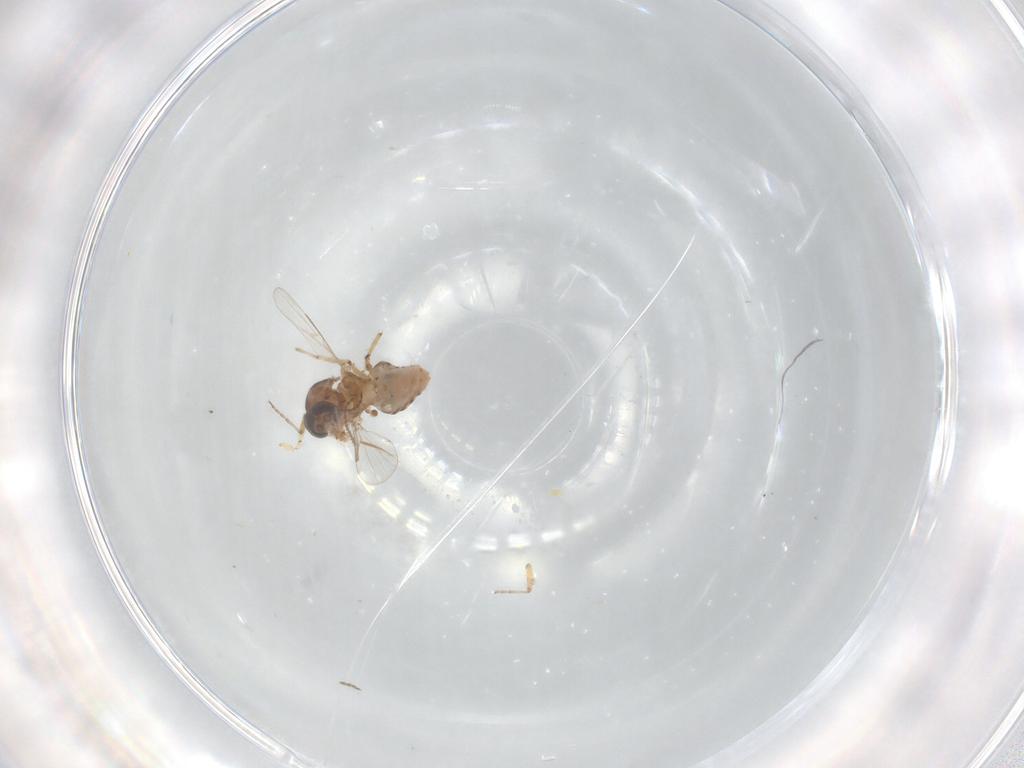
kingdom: Animalia
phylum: Arthropoda
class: Insecta
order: Diptera
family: Ceratopogonidae
